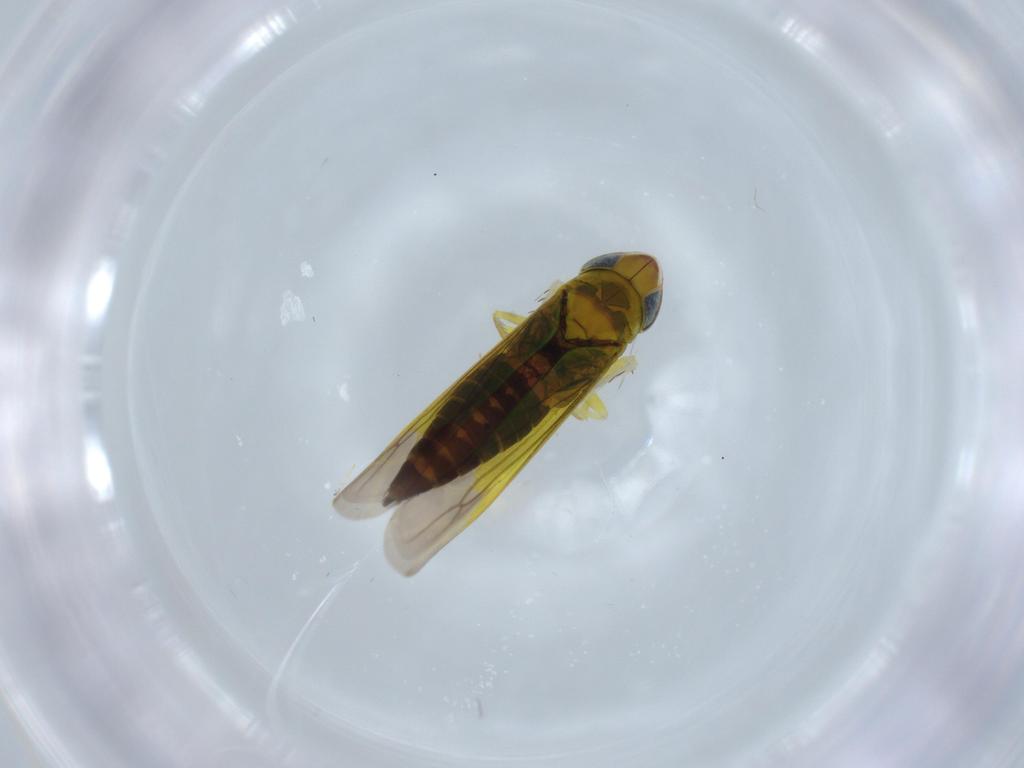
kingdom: Animalia
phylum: Arthropoda
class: Insecta
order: Hemiptera
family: Cicadellidae
